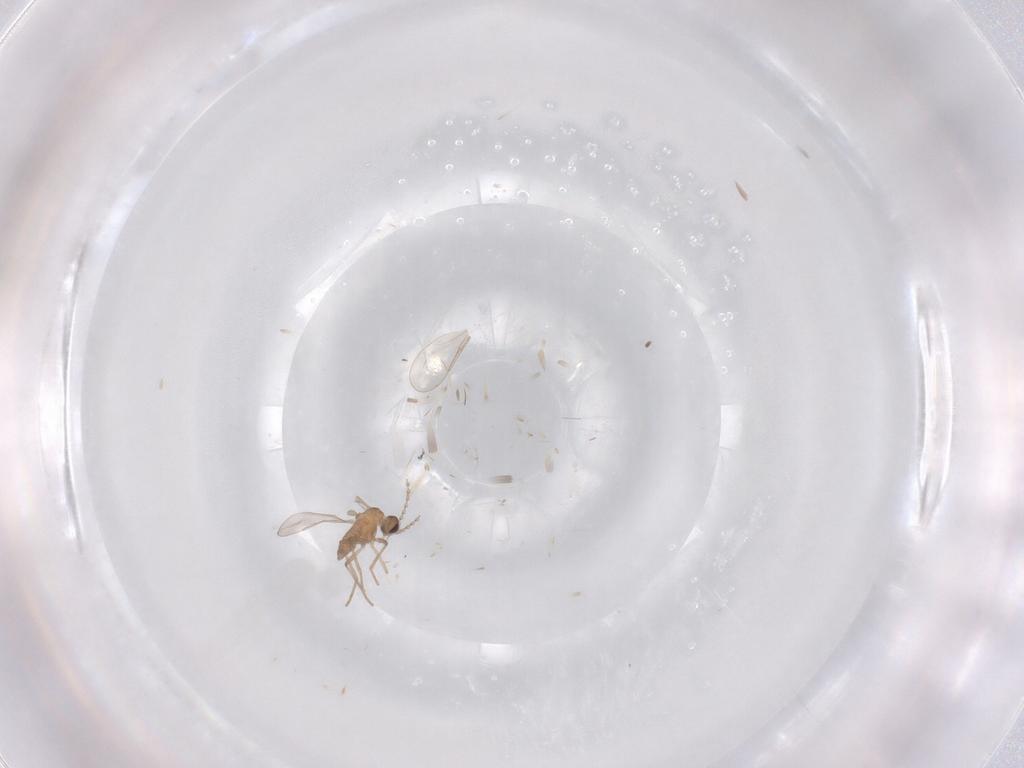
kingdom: Animalia
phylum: Arthropoda
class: Insecta
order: Diptera
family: Cecidomyiidae
